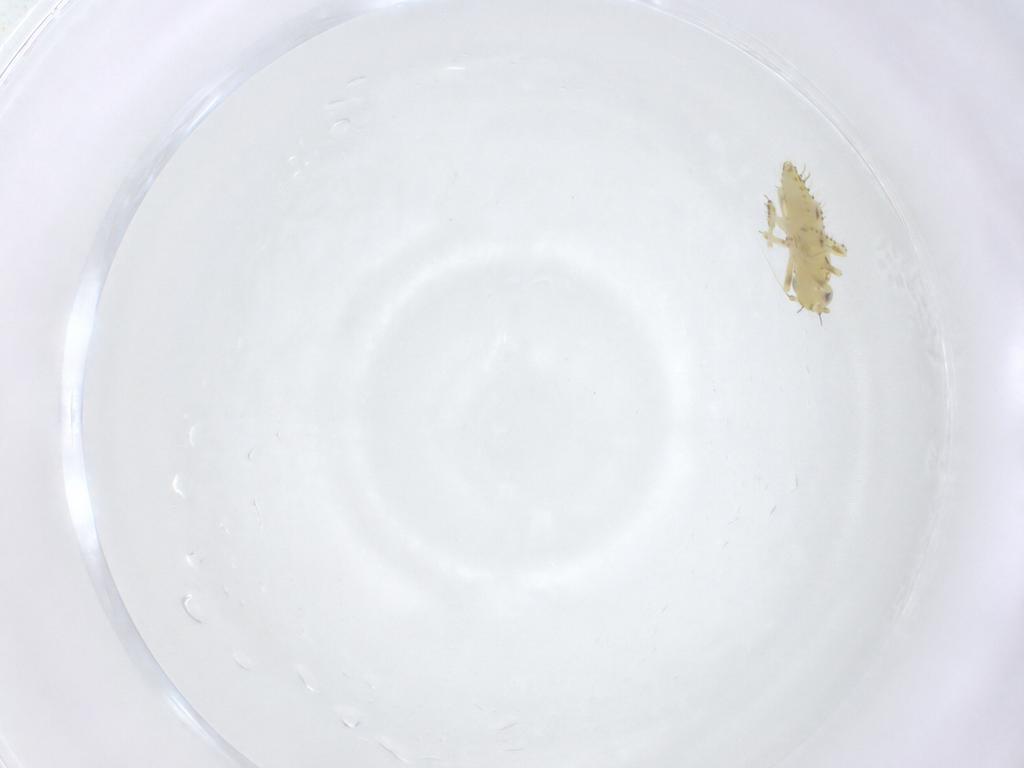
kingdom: Animalia
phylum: Arthropoda
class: Insecta
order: Hemiptera
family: Cicadellidae
